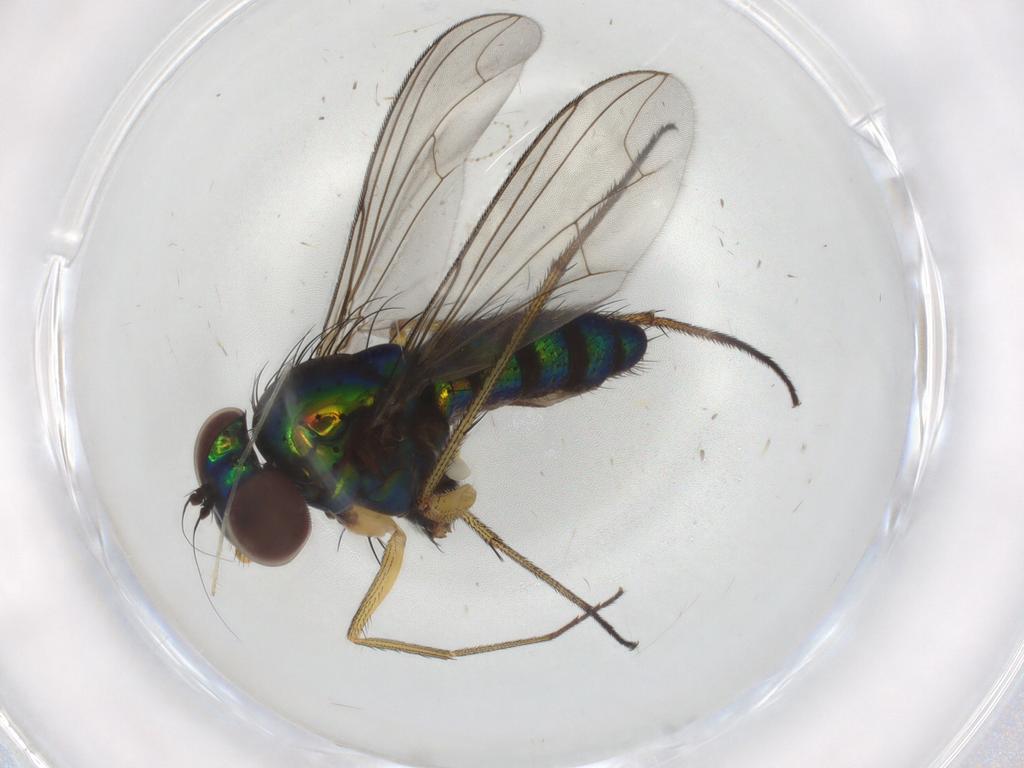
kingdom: Animalia
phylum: Arthropoda
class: Insecta
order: Diptera
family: Dolichopodidae
